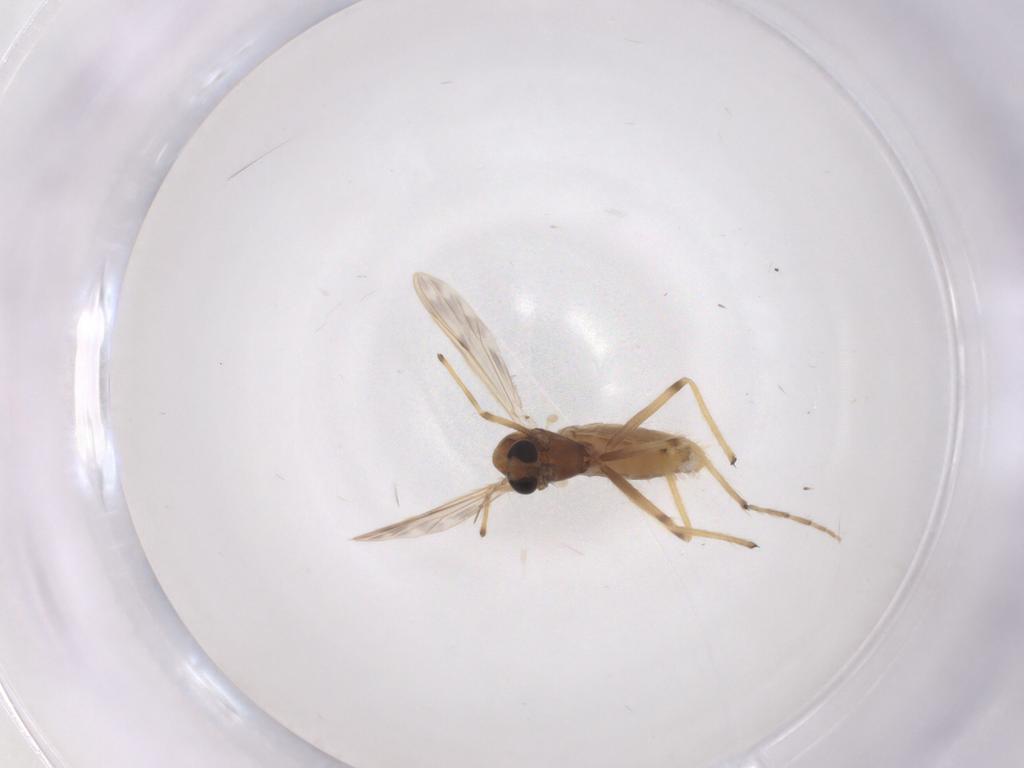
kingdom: Animalia
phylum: Arthropoda
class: Insecta
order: Diptera
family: Chironomidae
